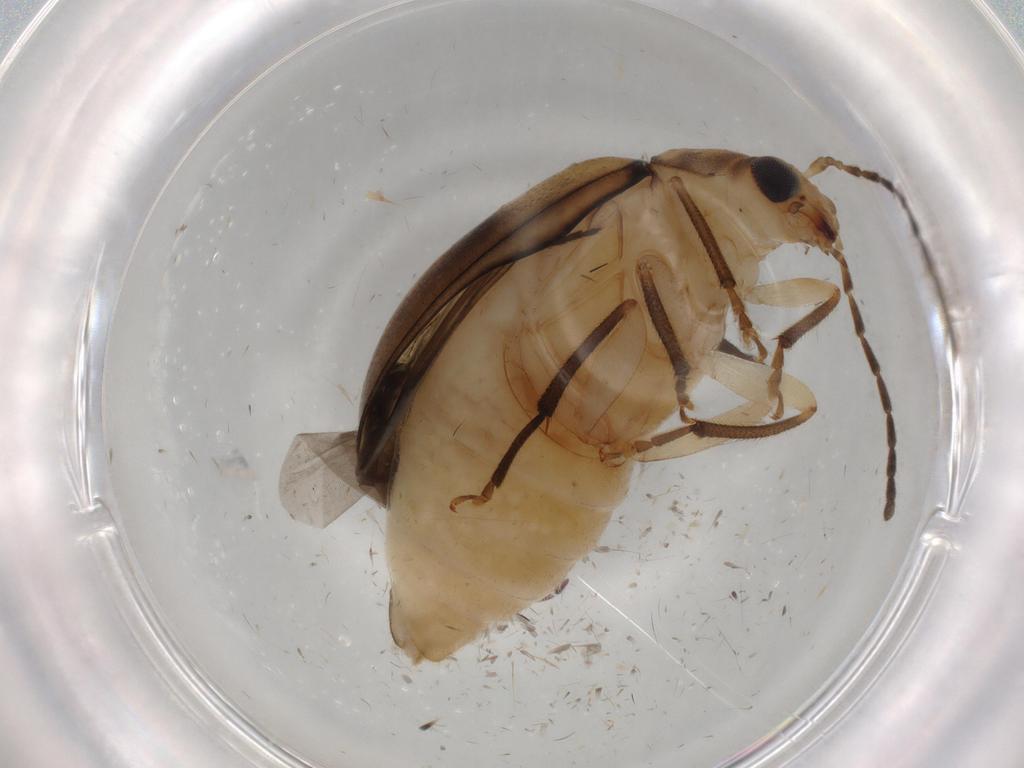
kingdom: Animalia
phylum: Arthropoda
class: Insecta
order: Coleoptera
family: Chrysomelidae
